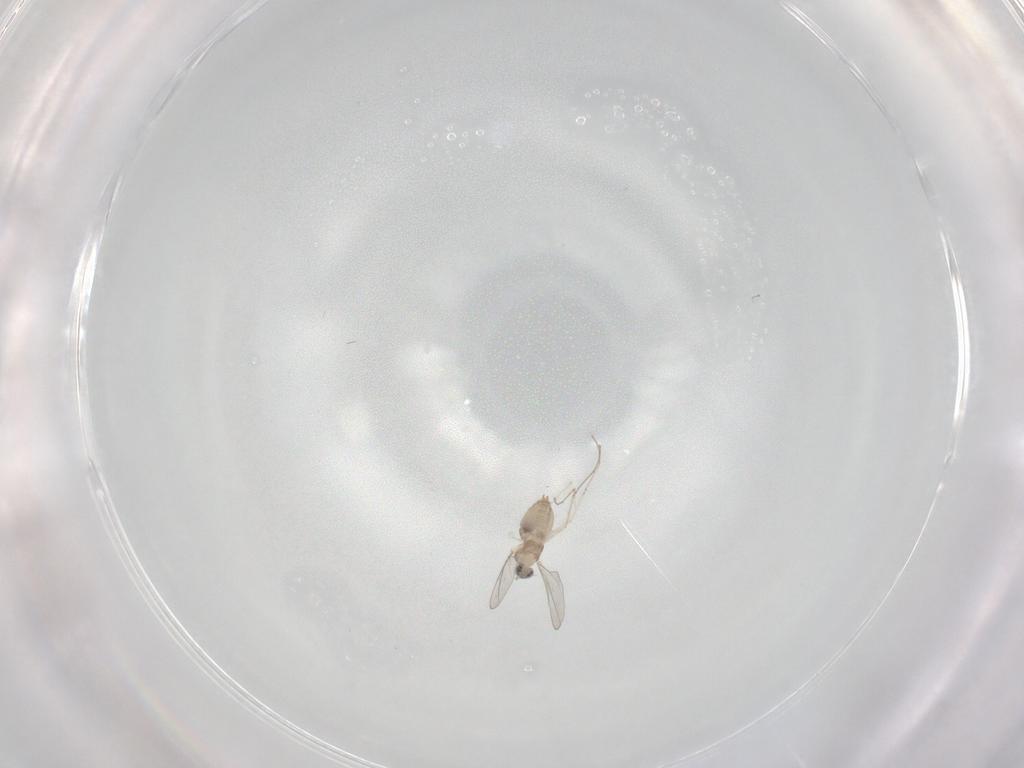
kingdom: Animalia
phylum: Arthropoda
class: Insecta
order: Diptera
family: Cecidomyiidae
